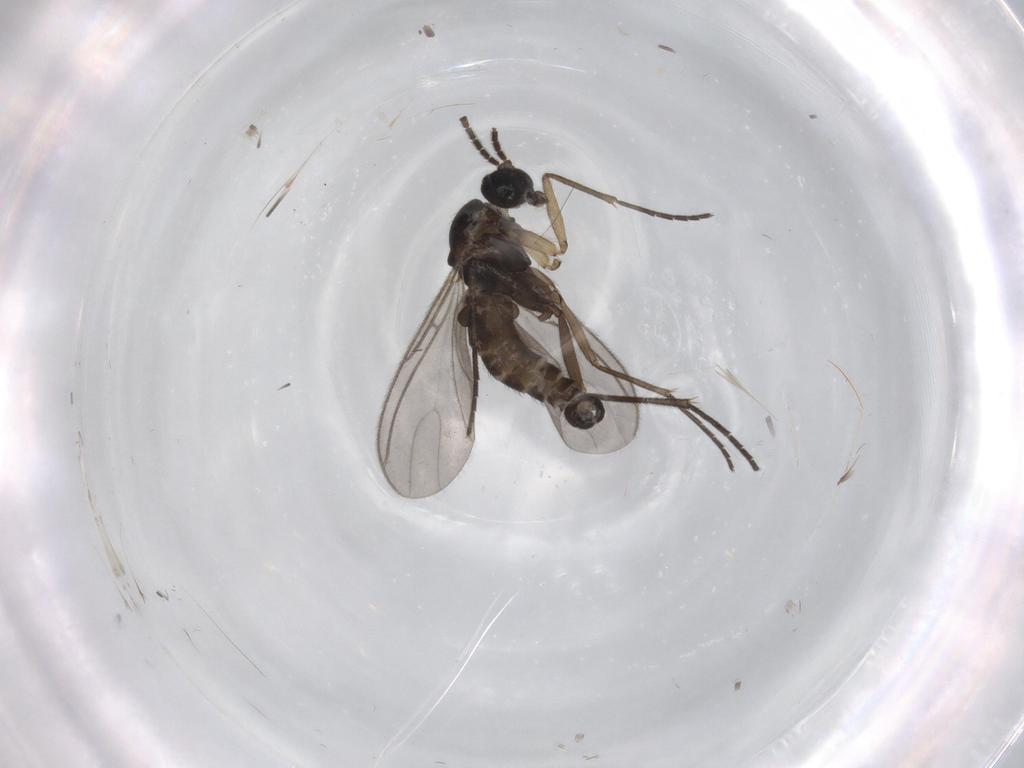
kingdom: Animalia
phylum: Arthropoda
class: Insecta
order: Diptera
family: Sciaridae
